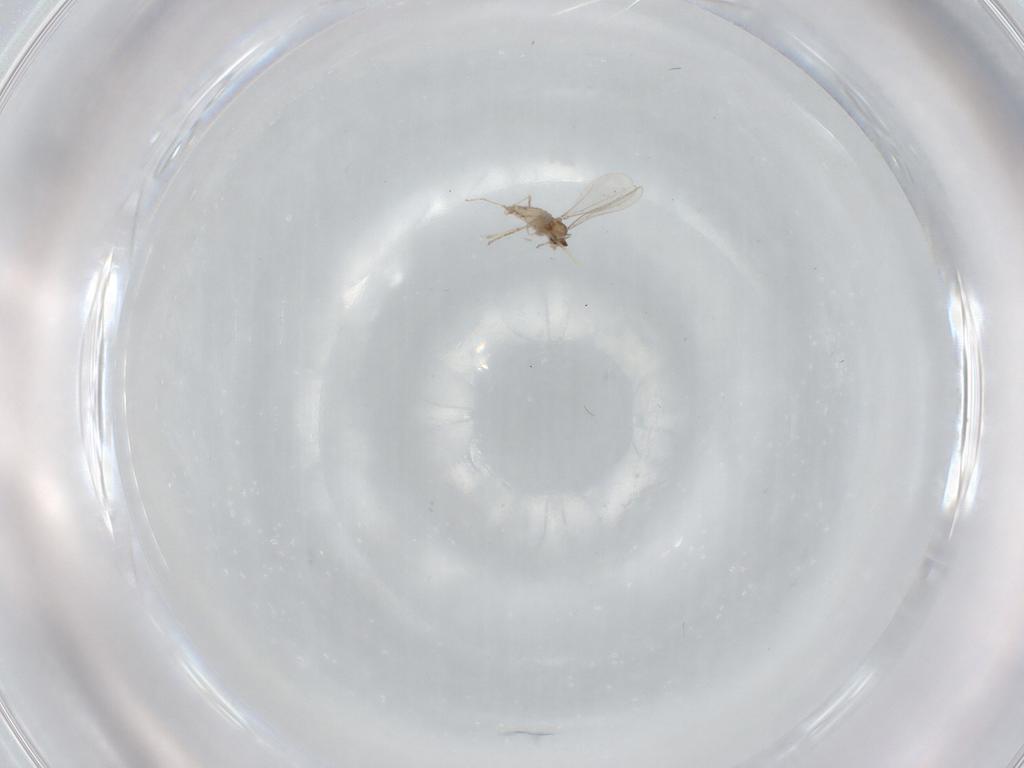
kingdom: Animalia
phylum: Arthropoda
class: Insecta
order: Diptera
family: Cecidomyiidae
